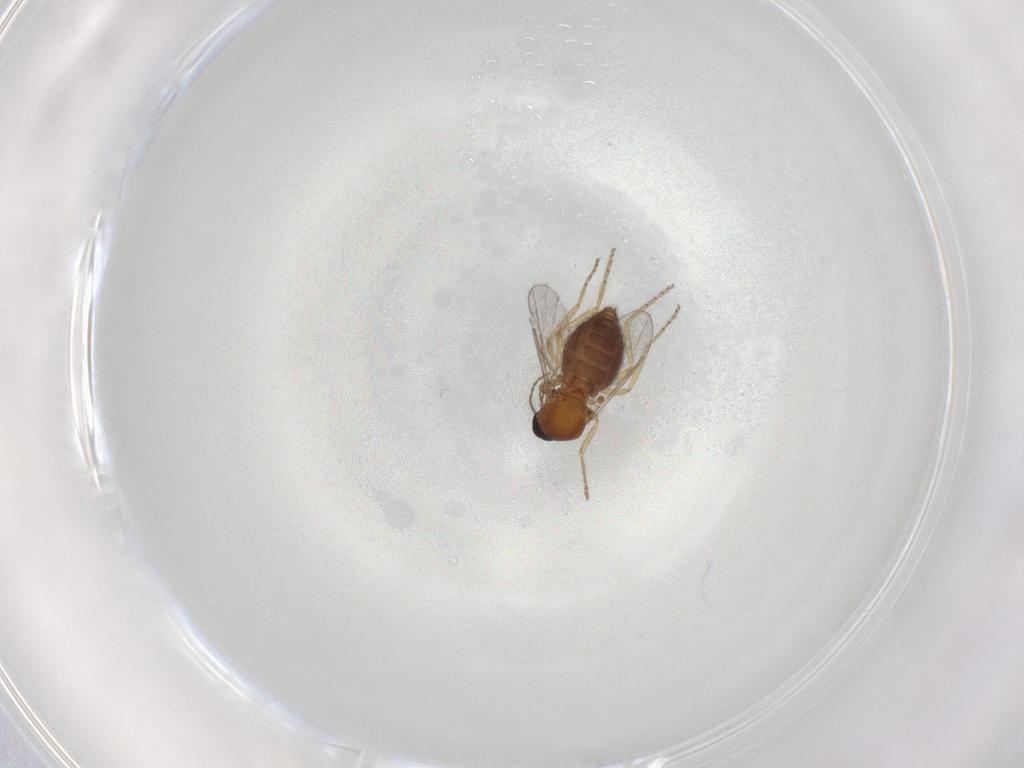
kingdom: Animalia
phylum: Arthropoda
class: Insecta
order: Diptera
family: Ceratopogonidae
